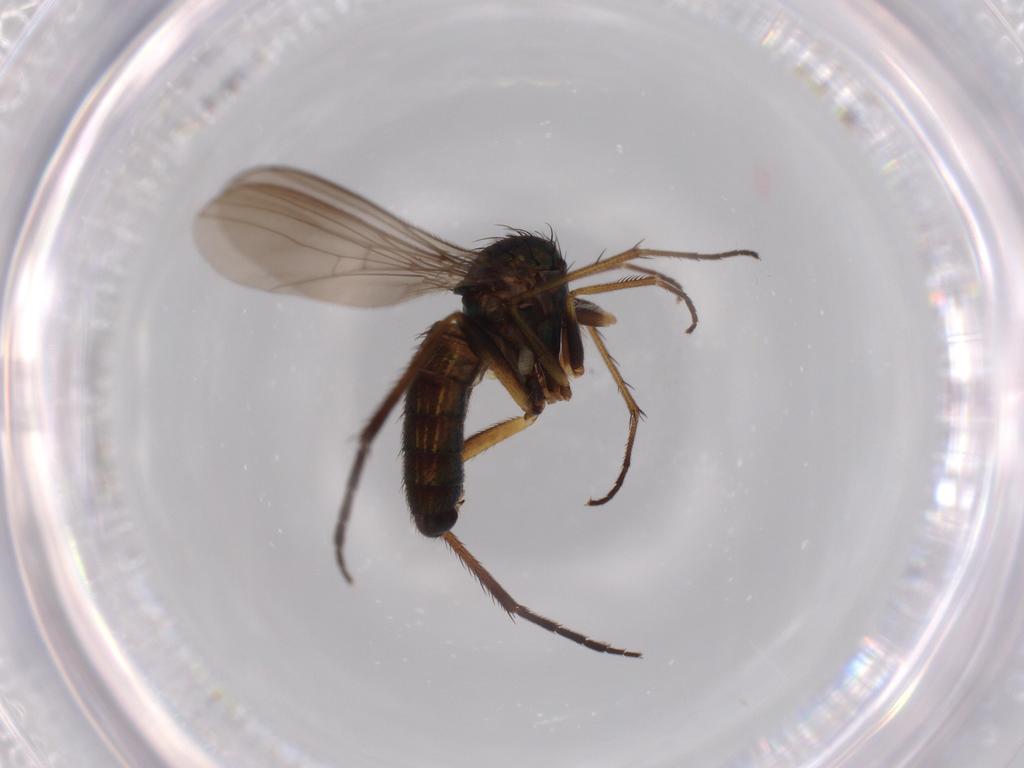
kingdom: Animalia
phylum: Arthropoda
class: Insecta
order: Diptera
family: Dolichopodidae
